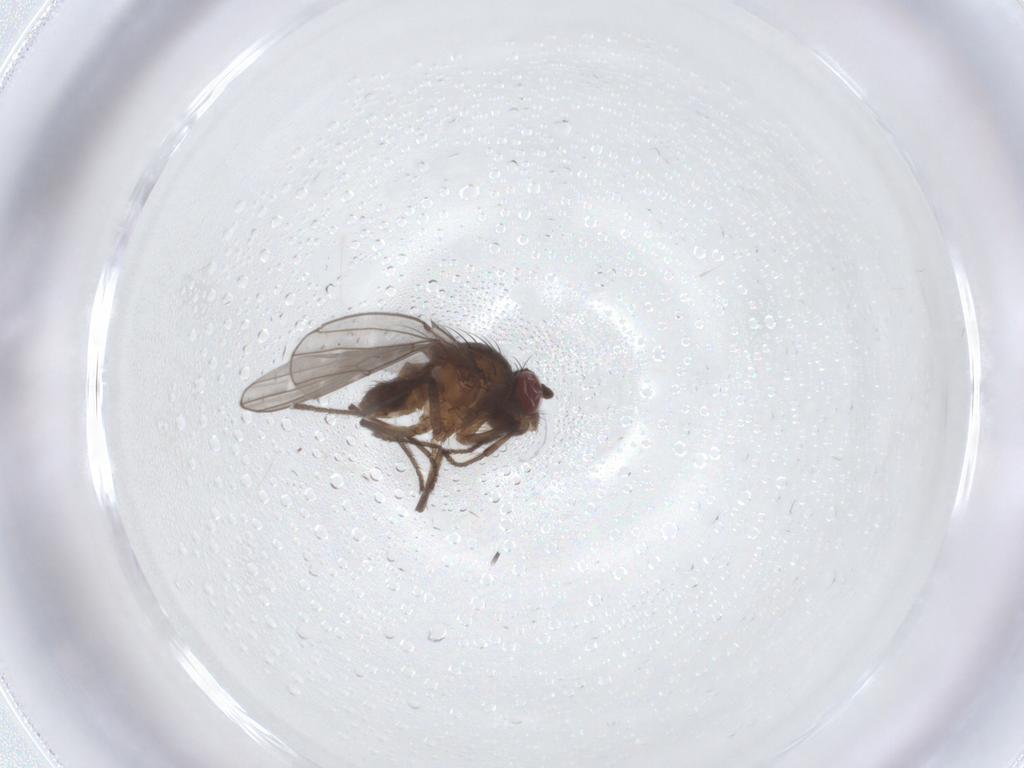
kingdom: Animalia
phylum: Arthropoda
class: Insecta
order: Diptera
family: Ephydridae
